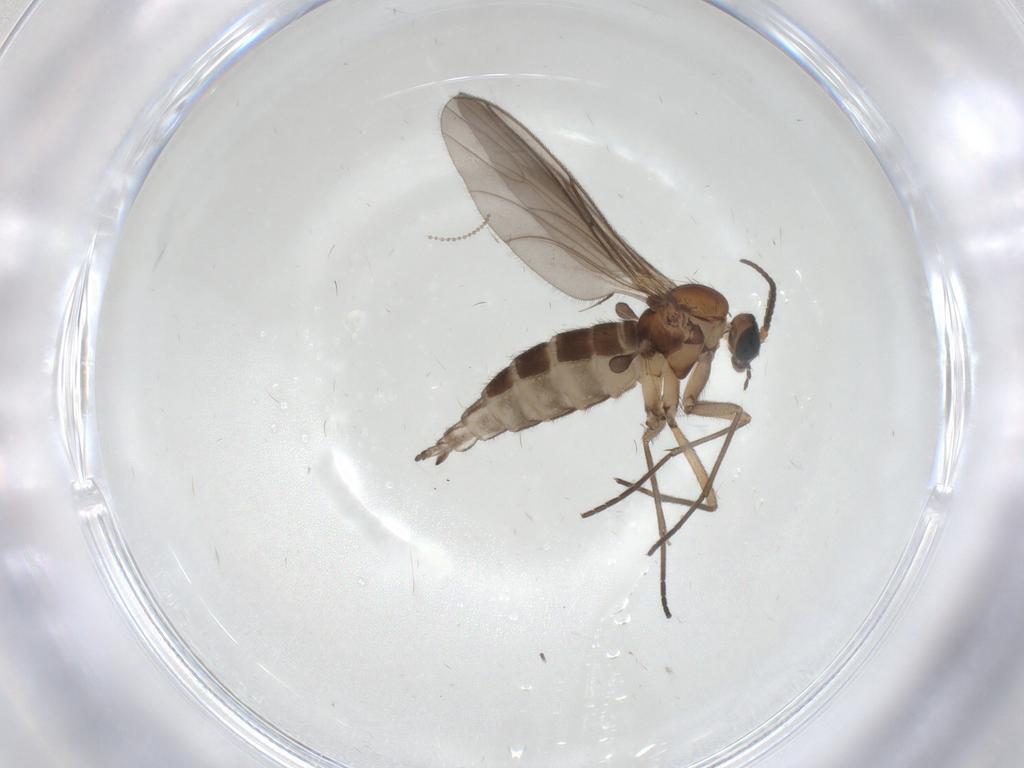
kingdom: Animalia
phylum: Arthropoda
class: Insecta
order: Diptera
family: Sciaridae
